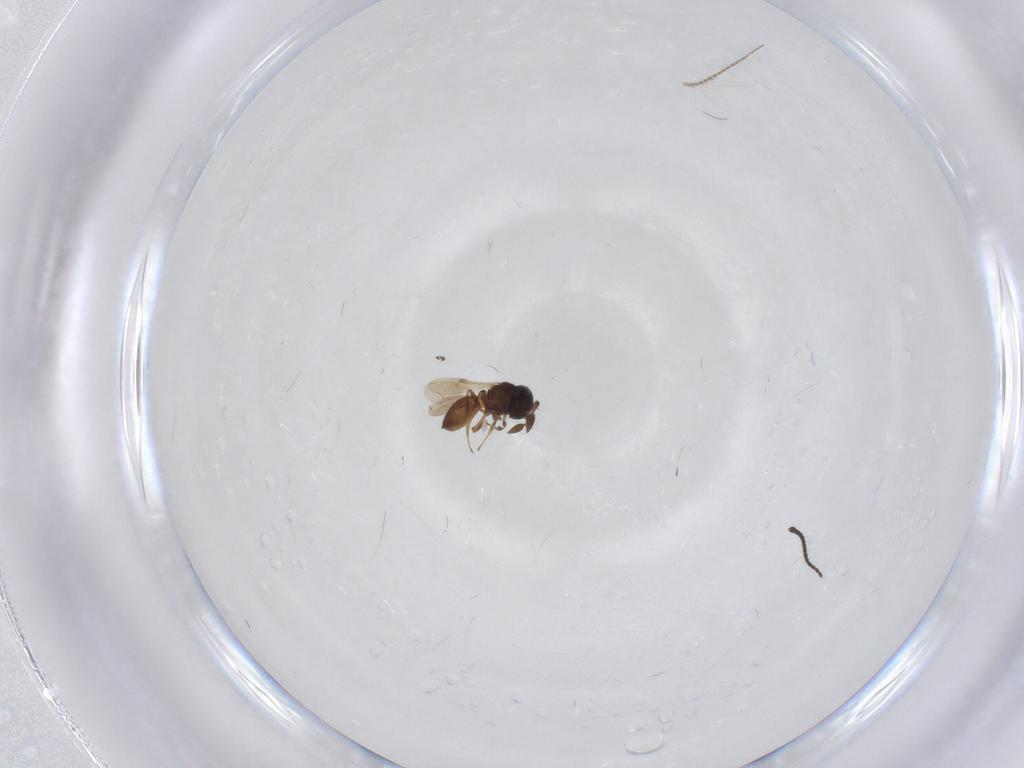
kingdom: Animalia
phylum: Arthropoda
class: Insecta
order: Hymenoptera
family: Scelionidae
